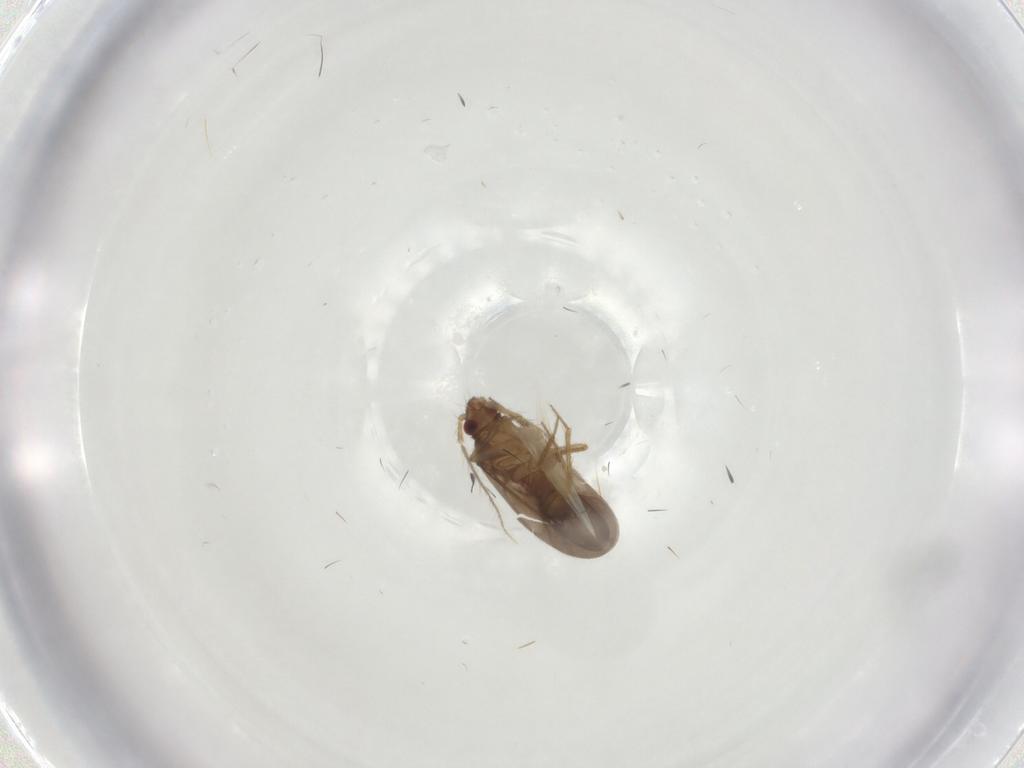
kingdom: Animalia
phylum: Arthropoda
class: Insecta
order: Hemiptera
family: Ceratocombidae
